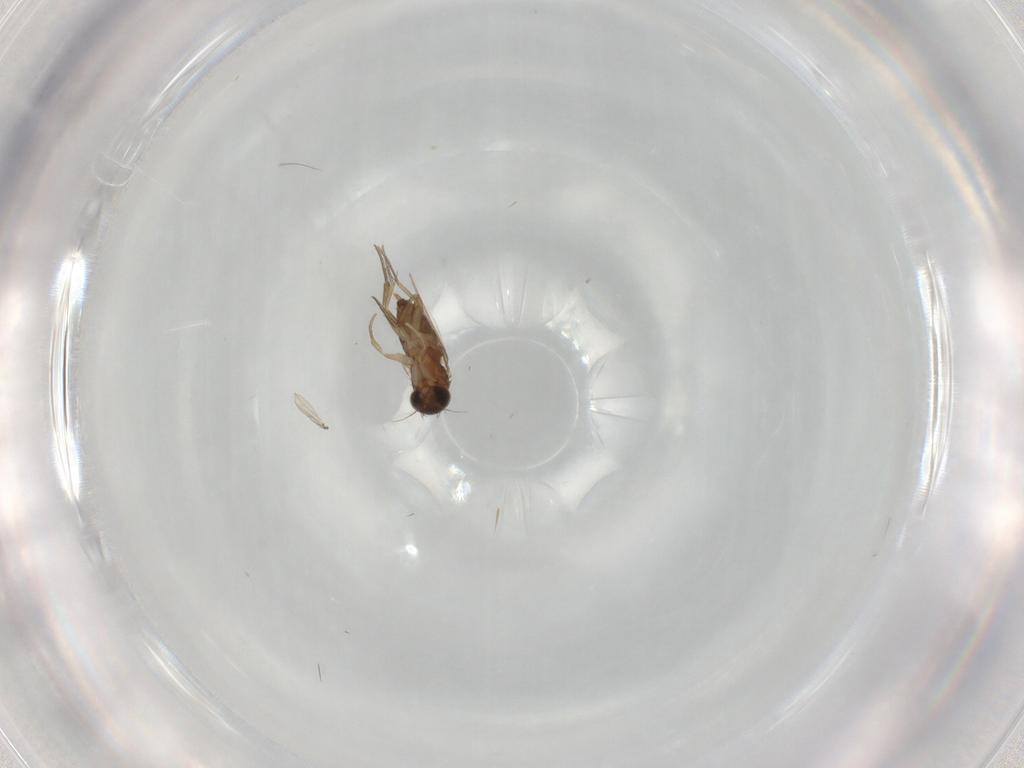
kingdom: Animalia
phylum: Arthropoda
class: Insecta
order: Diptera
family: Phoridae
